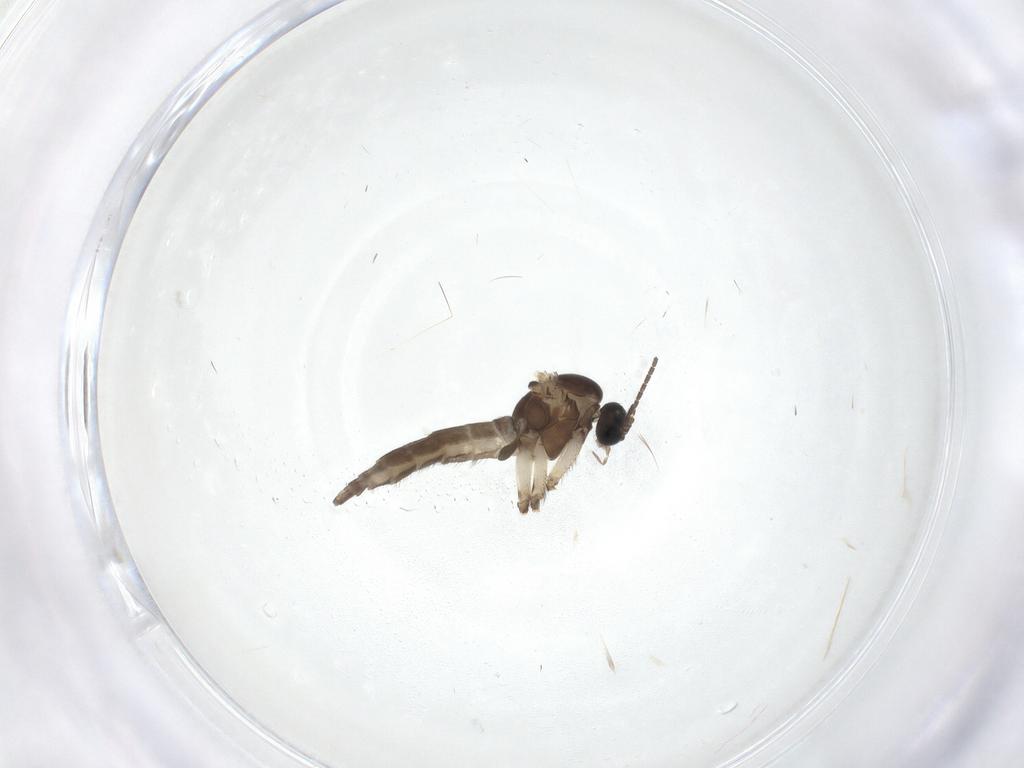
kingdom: Animalia
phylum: Arthropoda
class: Insecta
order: Diptera
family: Sciaridae
